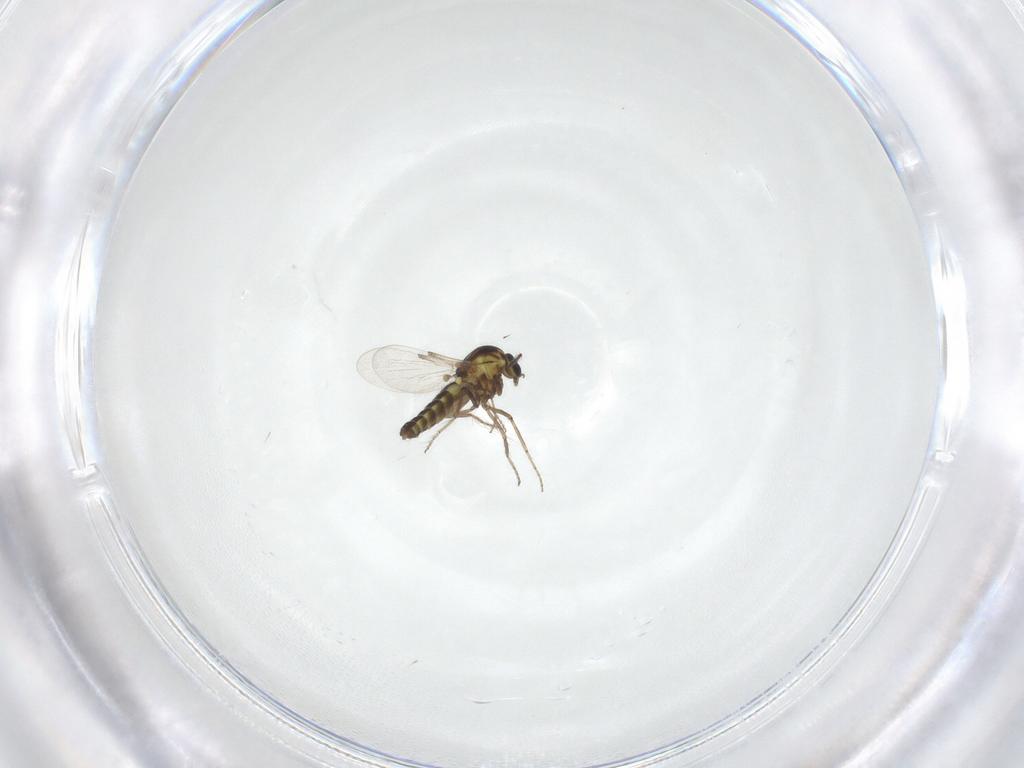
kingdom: Animalia
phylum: Arthropoda
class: Insecta
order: Diptera
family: Ceratopogonidae
